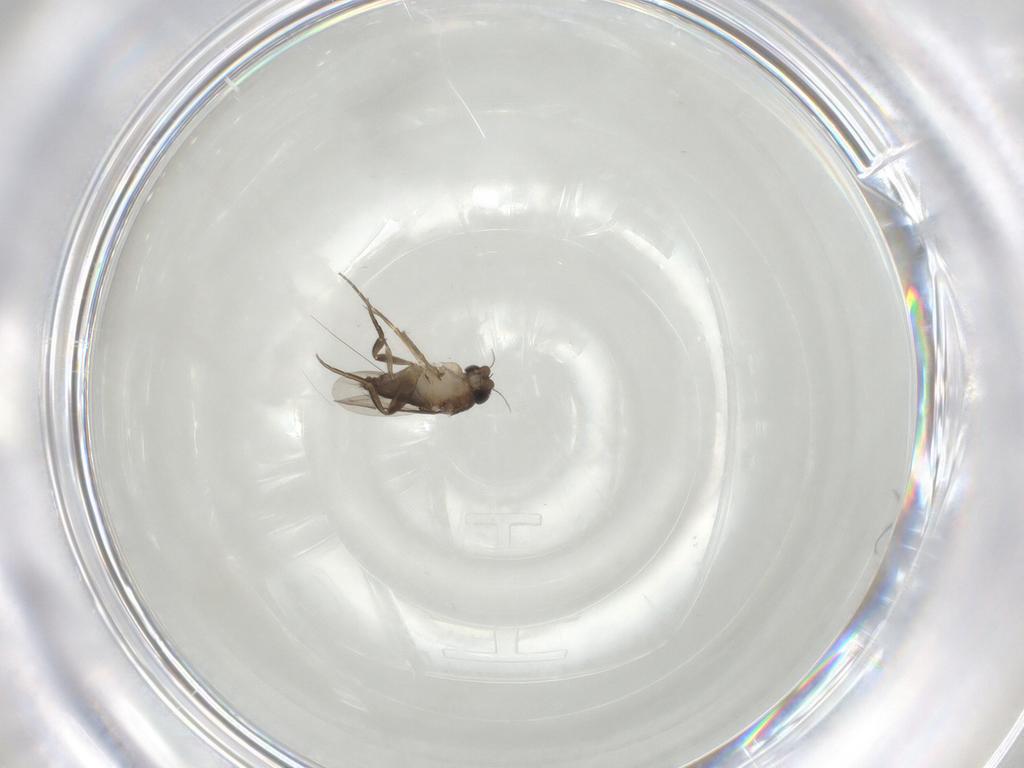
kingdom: Animalia
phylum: Arthropoda
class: Insecta
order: Diptera
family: Phoridae
